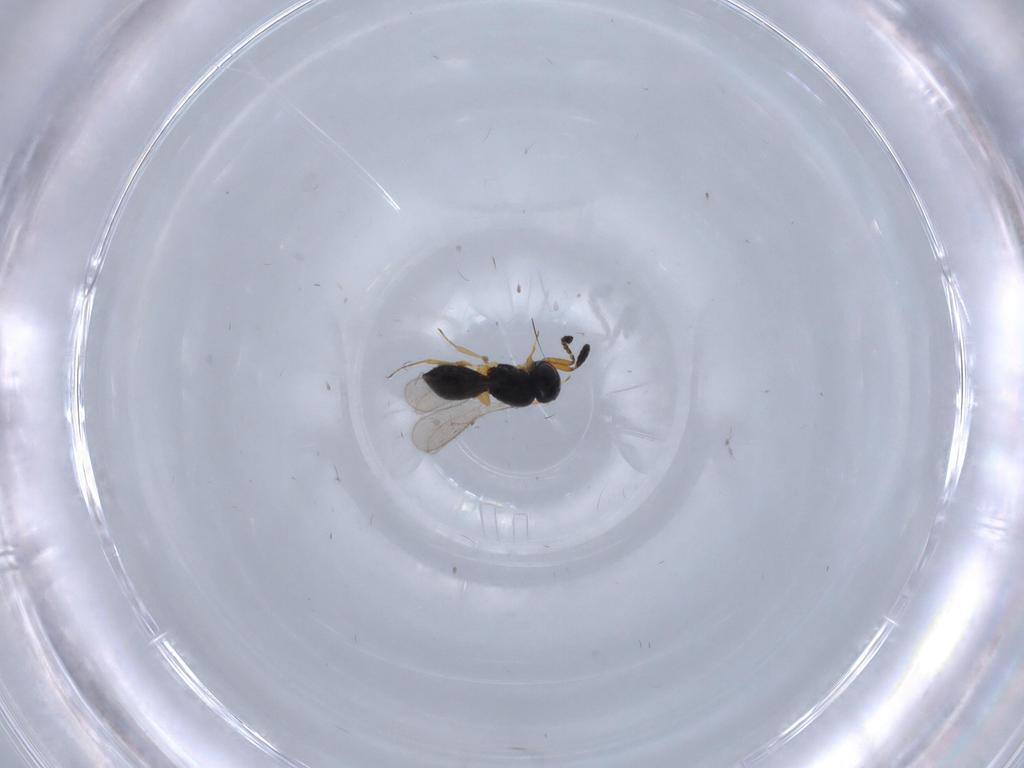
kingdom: Animalia
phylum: Arthropoda
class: Insecta
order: Hymenoptera
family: Scelionidae
